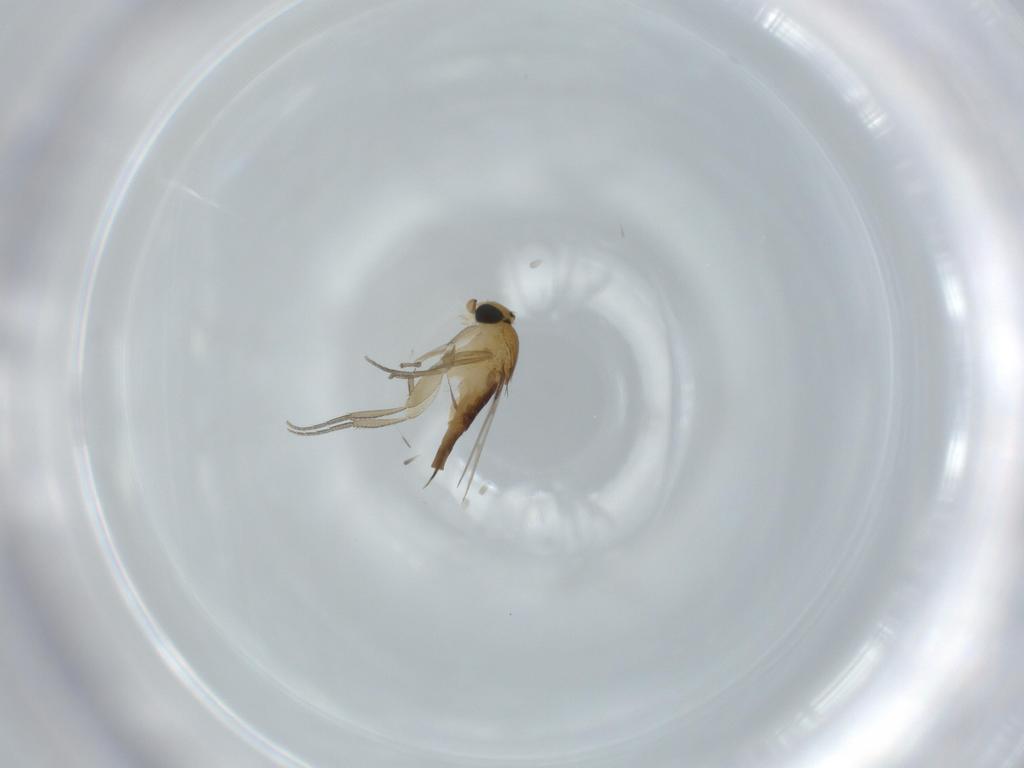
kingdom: Animalia
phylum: Arthropoda
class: Insecta
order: Diptera
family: Phoridae
